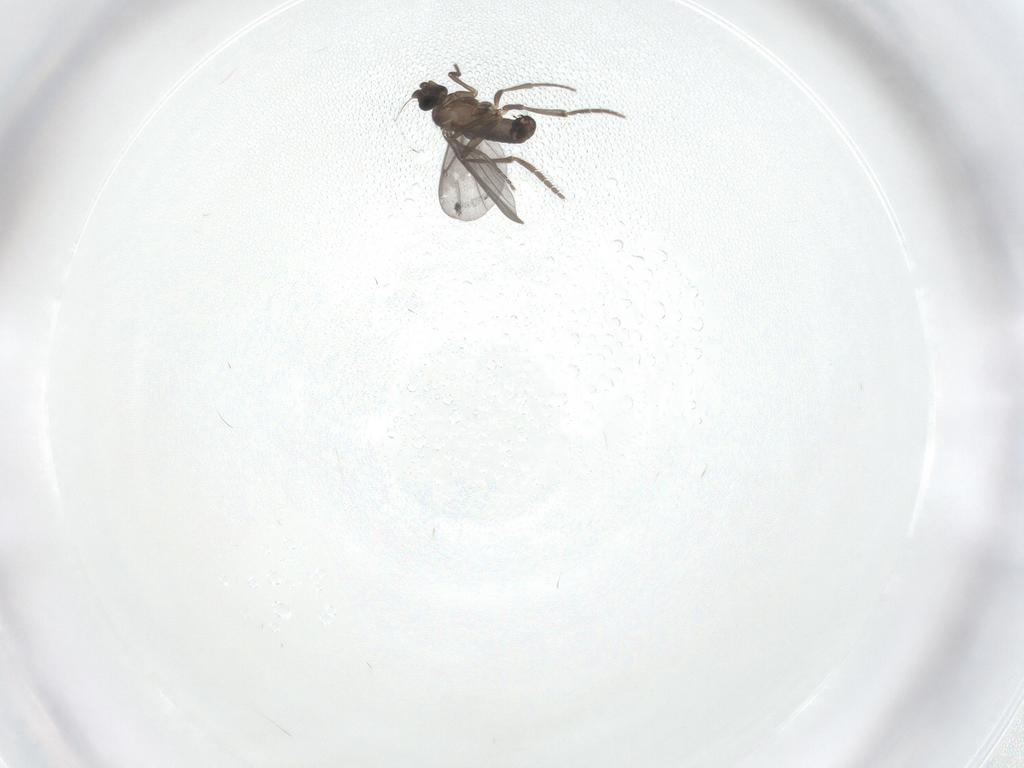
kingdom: Animalia
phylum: Arthropoda
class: Insecta
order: Diptera
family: Phoridae
